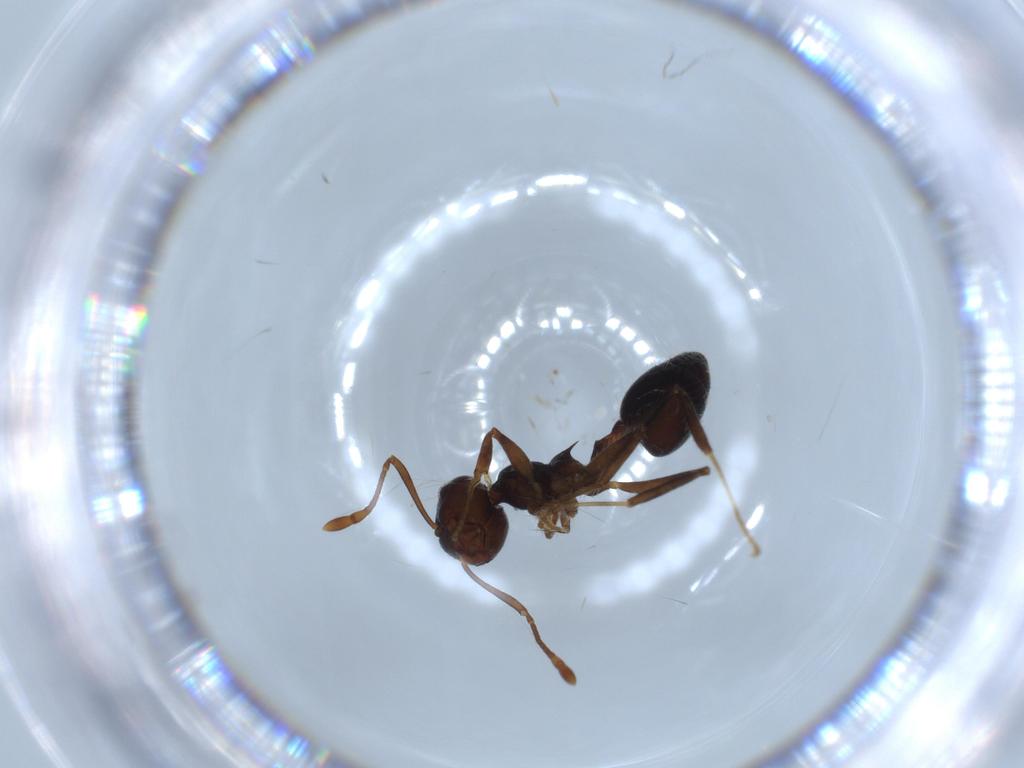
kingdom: Animalia
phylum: Arthropoda
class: Insecta
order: Hymenoptera
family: Formicidae
